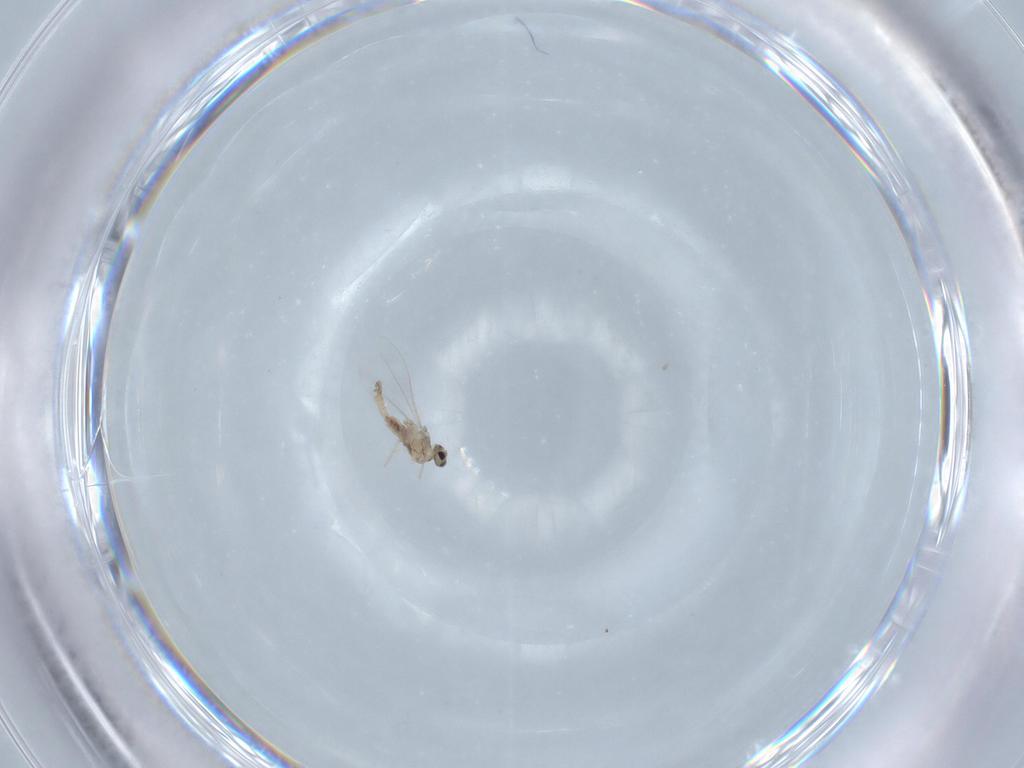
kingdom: Animalia
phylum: Arthropoda
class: Insecta
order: Diptera
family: Cecidomyiidae
